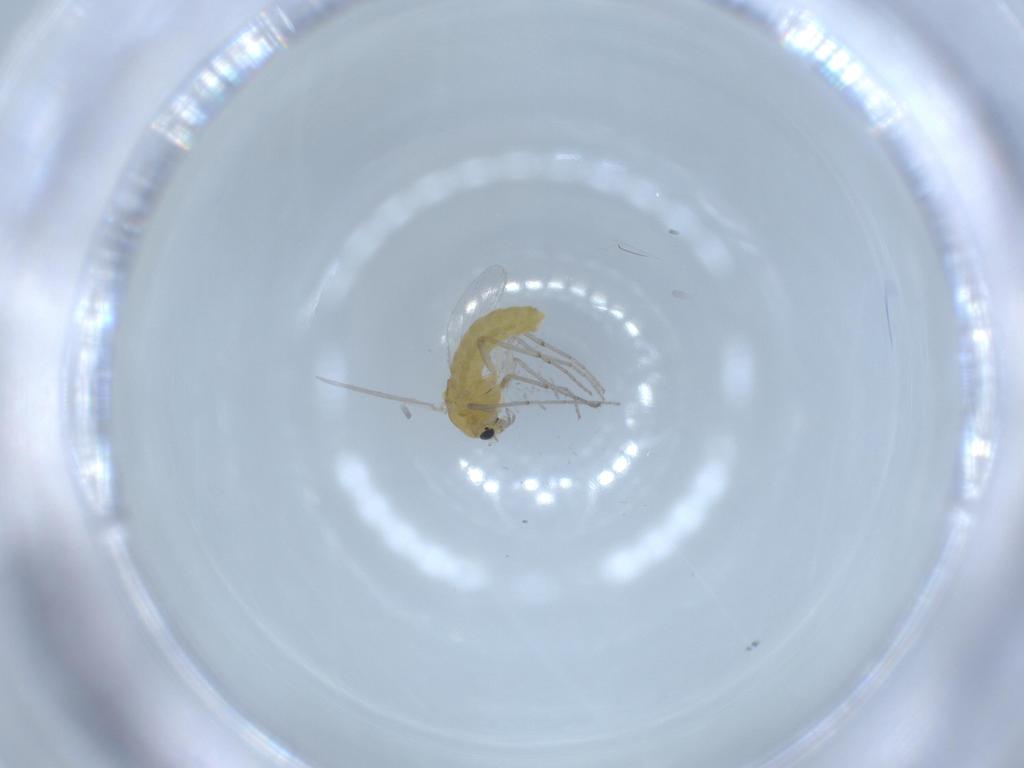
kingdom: Animalia
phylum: Arthropoda
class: Insecta
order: Diptera
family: Chironomidae
